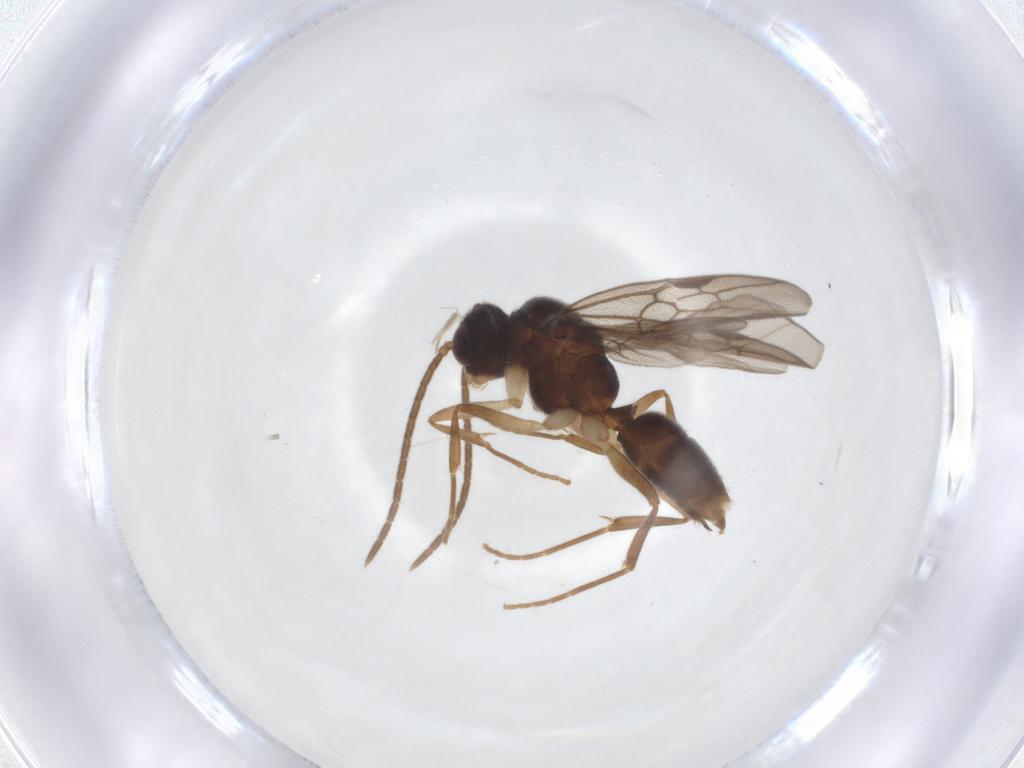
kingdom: Animalia
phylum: Arthropoda
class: Insecta
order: Hymenoptera
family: Formicidae
